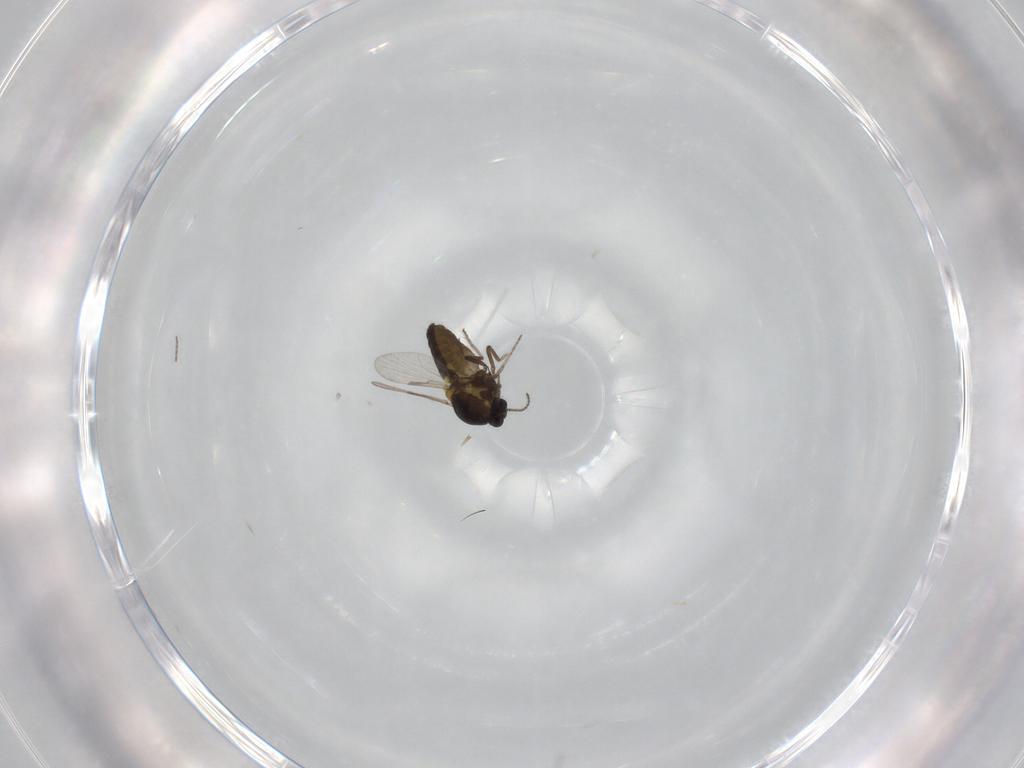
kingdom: Animalia
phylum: Arthropoda
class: Insecta
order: Diptera
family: Ceratopogonidae
